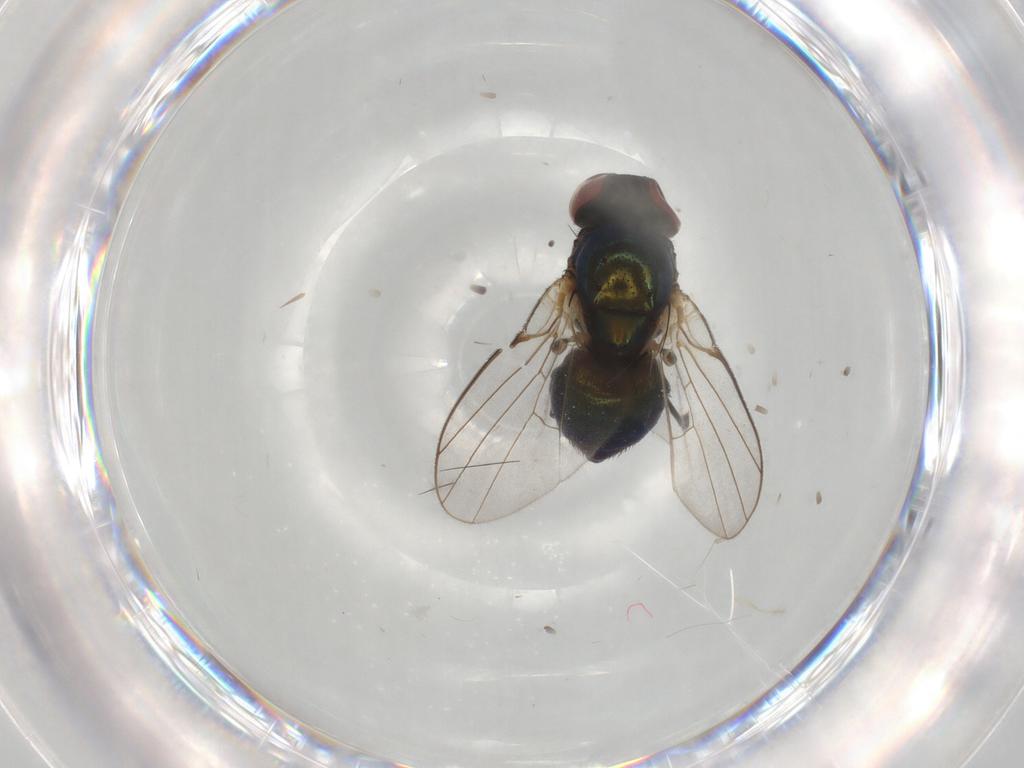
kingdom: Animalia
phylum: Arthropoda
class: Insecta
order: Diptera
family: Agromyzidae
